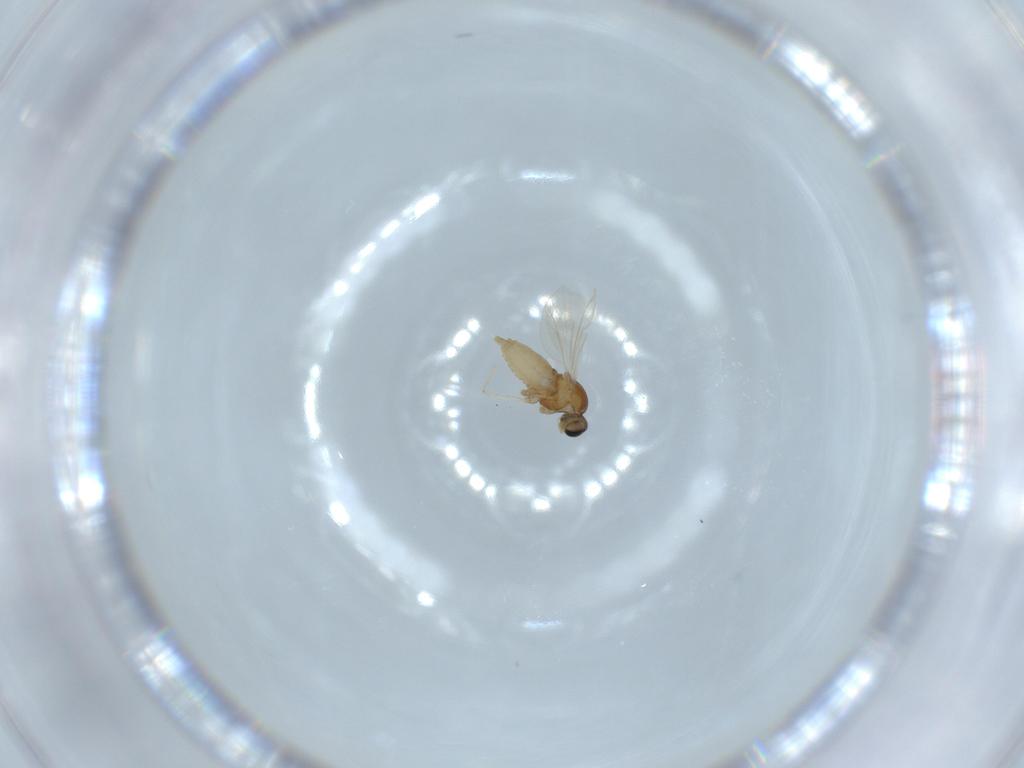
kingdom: Animalia
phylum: Arthropoda
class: Insecta
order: Diptera
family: Cecidomyiidae
